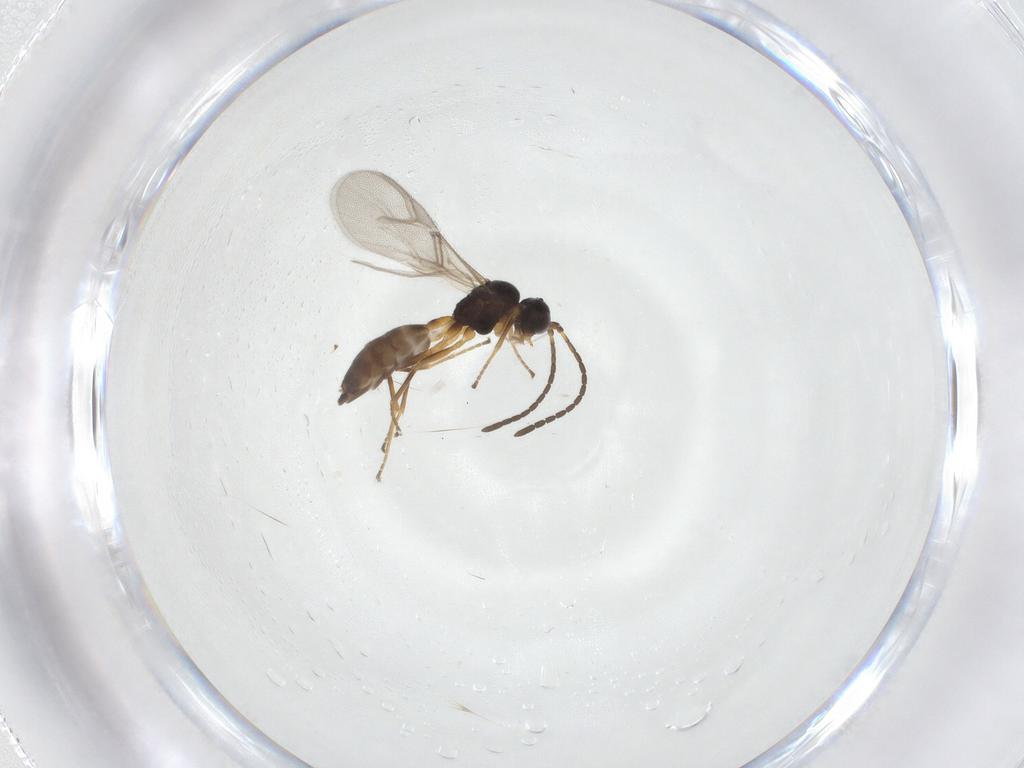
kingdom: Animalia
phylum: Arthropoda
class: Insecta
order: Hymenoptera
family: Braconidae
